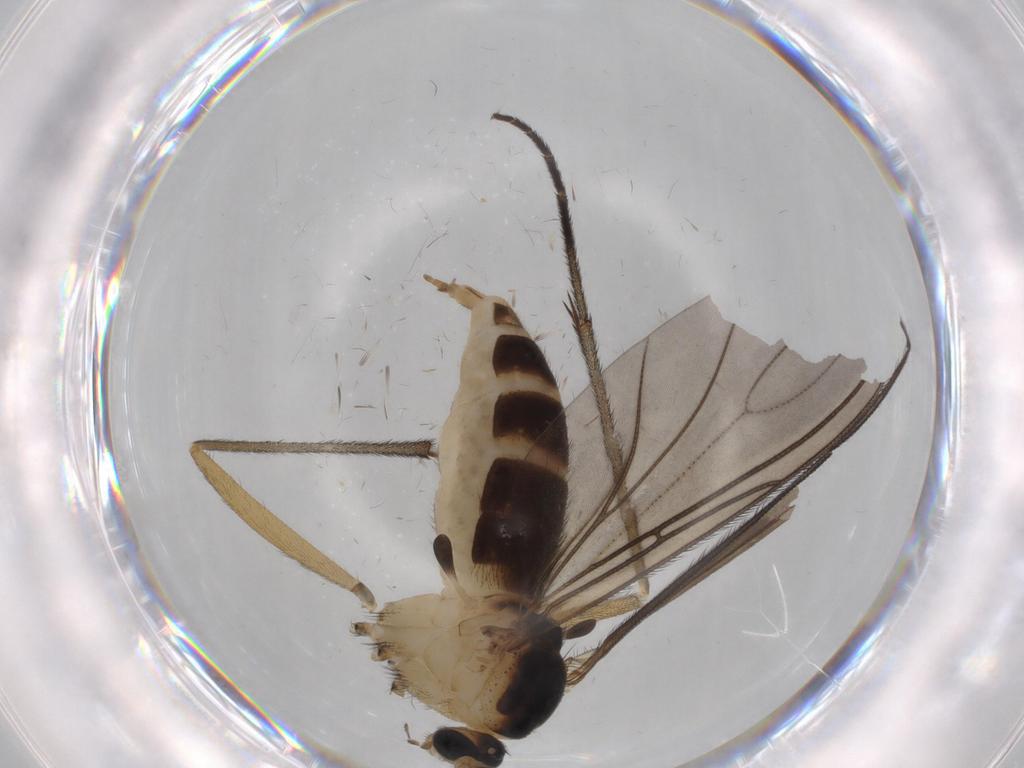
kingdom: Animalia
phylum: Arthropoda
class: Insecta
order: Diptera
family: Sciaridae
